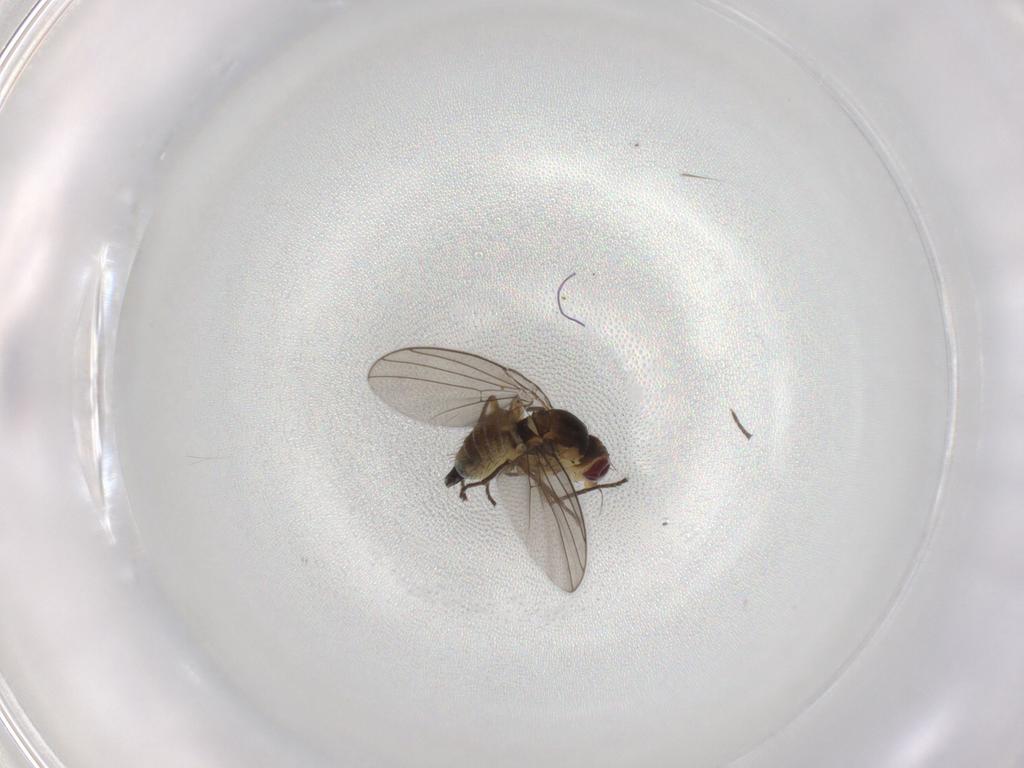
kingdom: Animalia
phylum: Arthropoda
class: Insecta
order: Diptera
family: Agromyzidae
